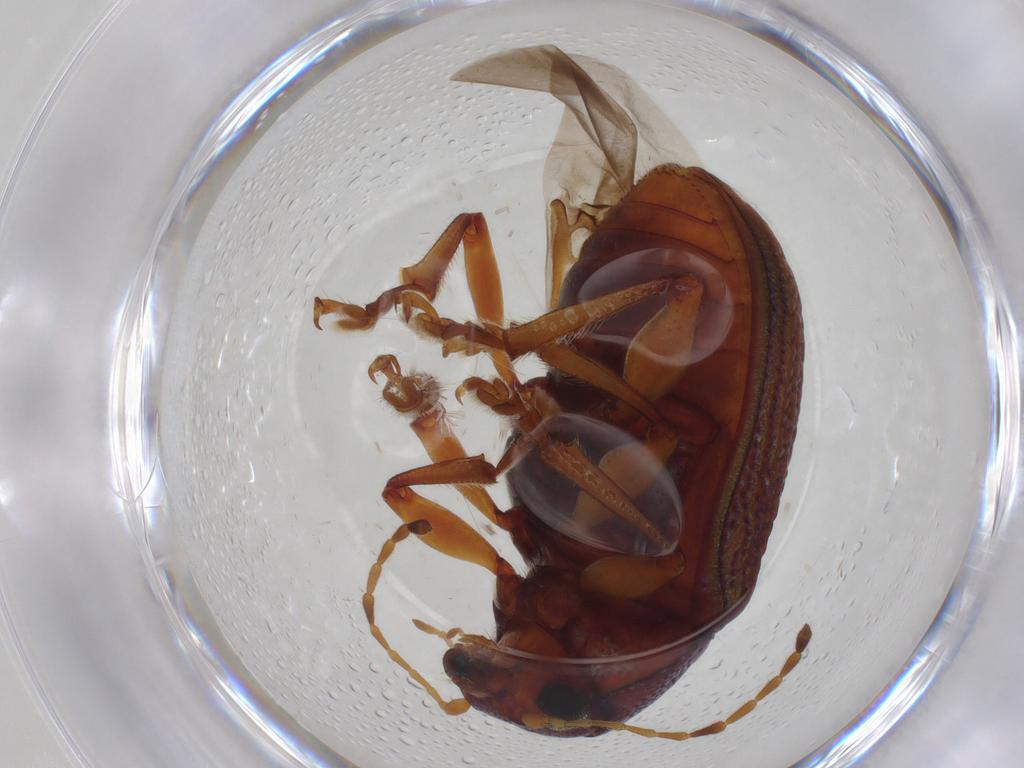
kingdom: Animalia
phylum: Arthropoda
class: Insecta
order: Coleoptera
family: Chrysomelidae
